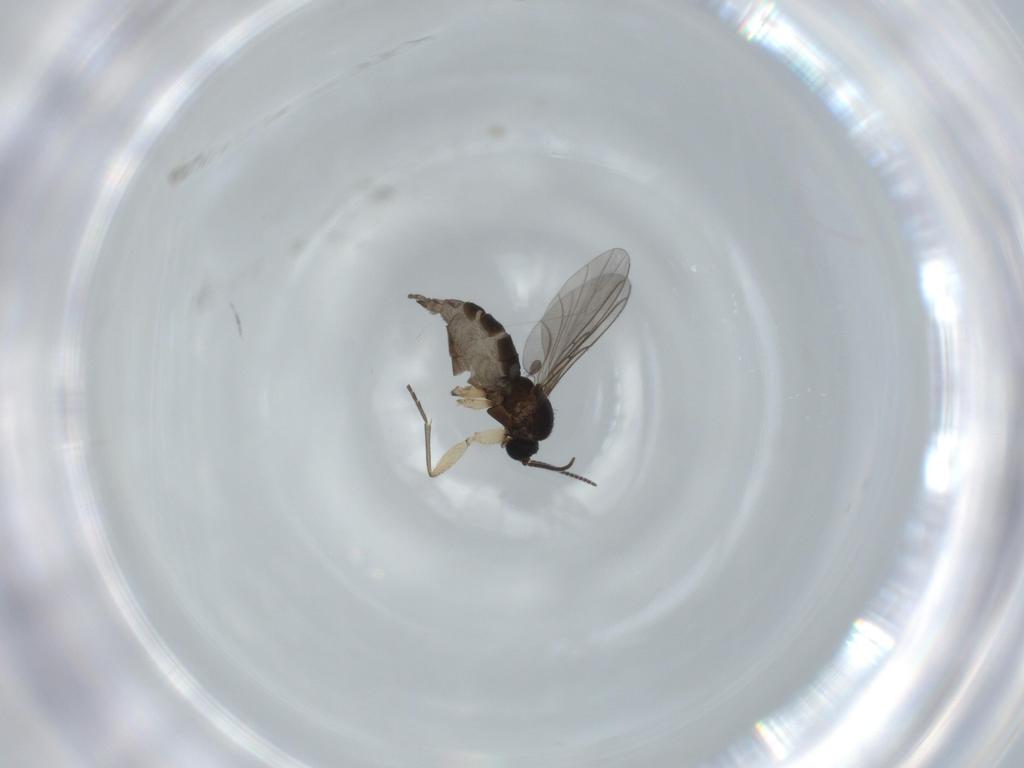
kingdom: Animalia
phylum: Arthropoda
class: Insecta
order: Diptera
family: Sciaridae
